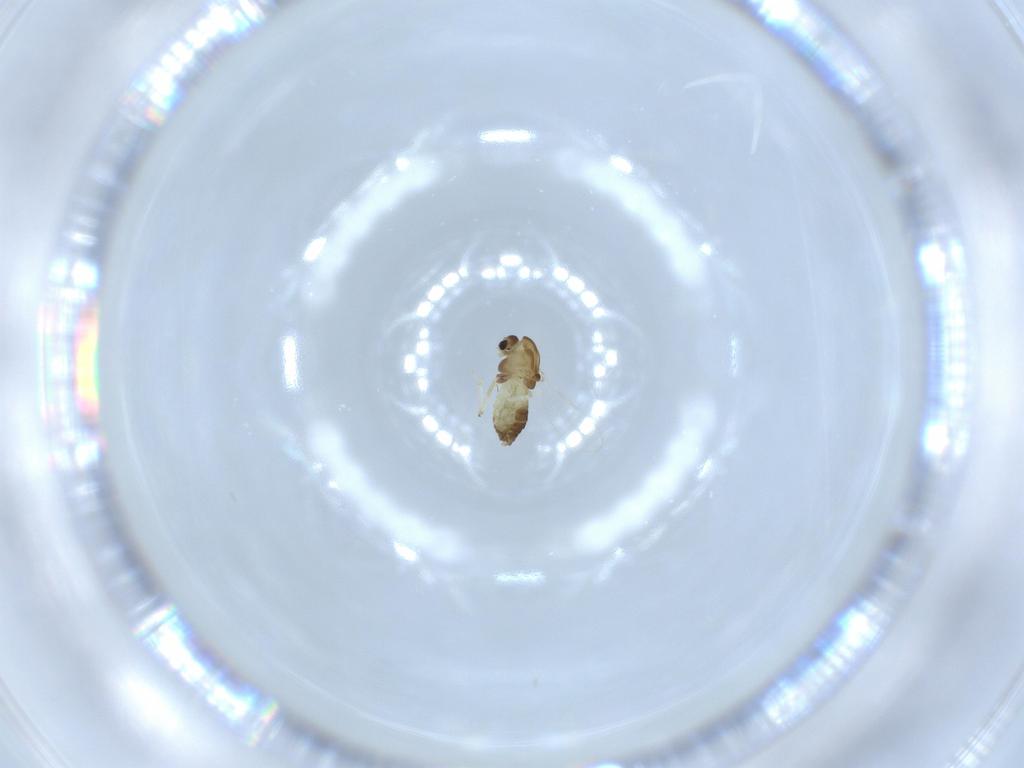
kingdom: Animalia
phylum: Arthropoda
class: Insecta
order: Diptera
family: Chironomidae
